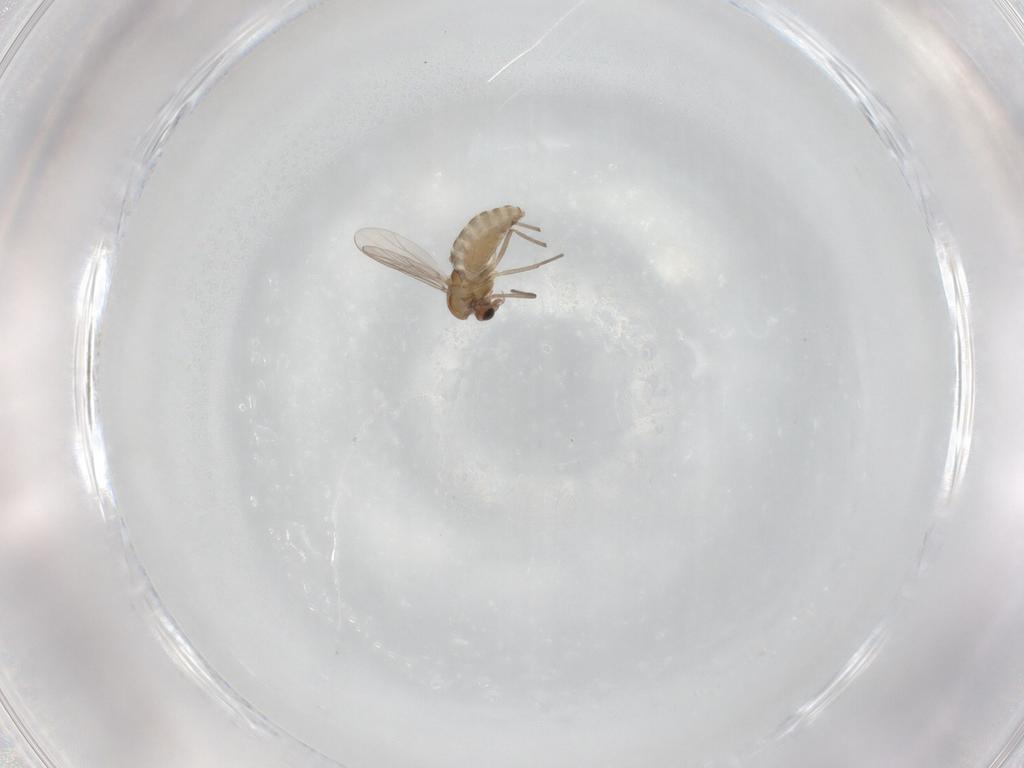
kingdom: Animalia
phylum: Arthropoda
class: Insecta
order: Diptera
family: Chironomidae
